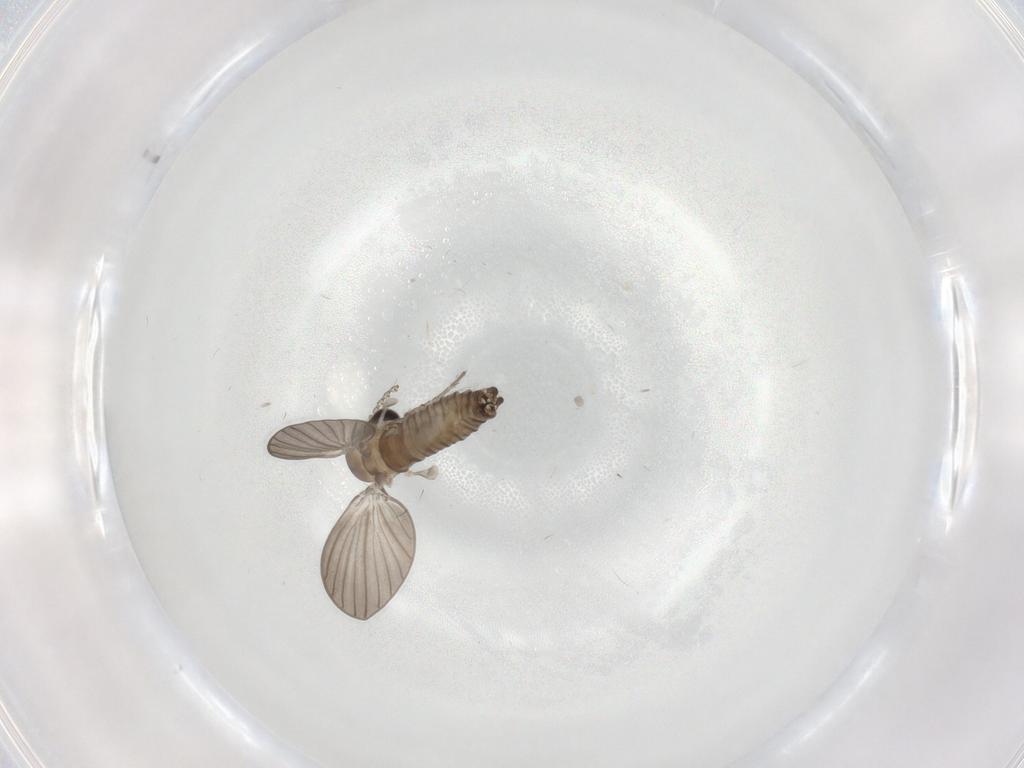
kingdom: Animalia
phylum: Arthropoda
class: Insecta
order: Diptera
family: Psychodidae
